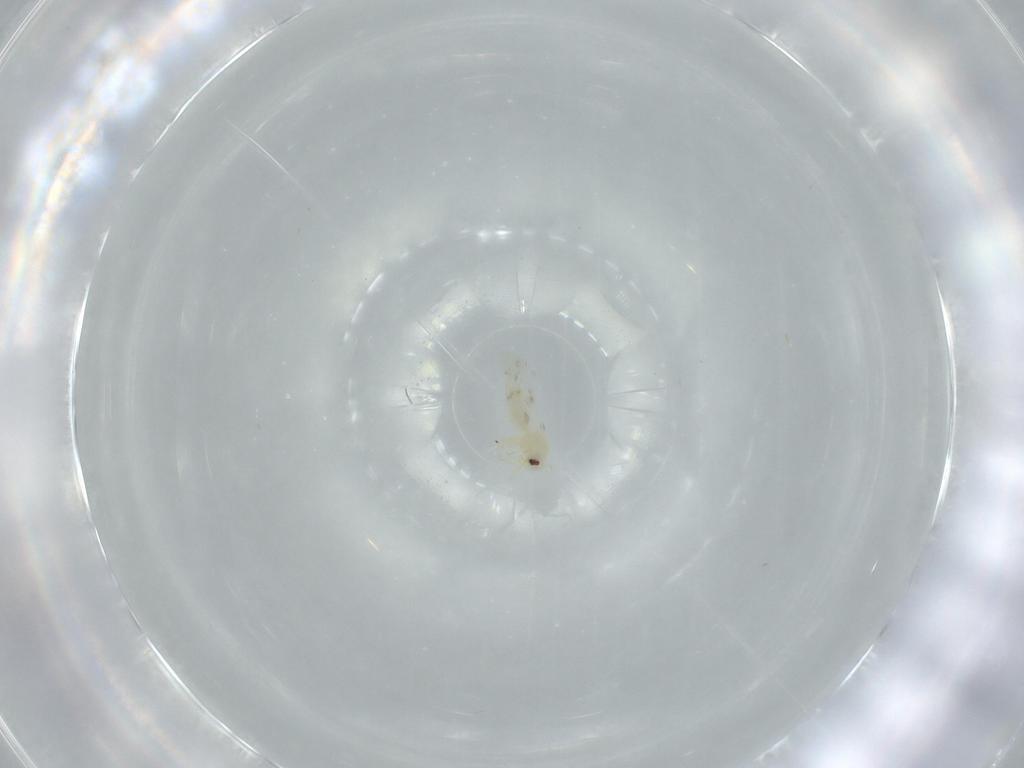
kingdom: Animalia
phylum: Arthropoda
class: Insecta
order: Hemiptera
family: Aleyrodidae
